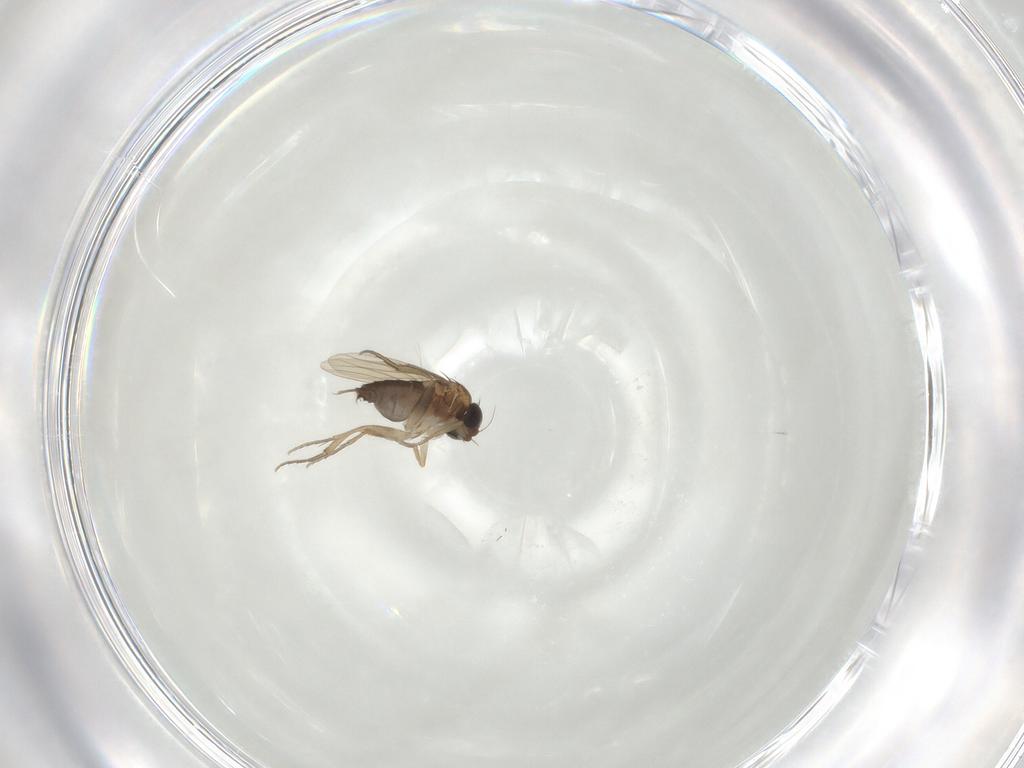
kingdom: Animalia
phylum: Arthropoda
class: Insecta
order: Diptera
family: Phoridae
